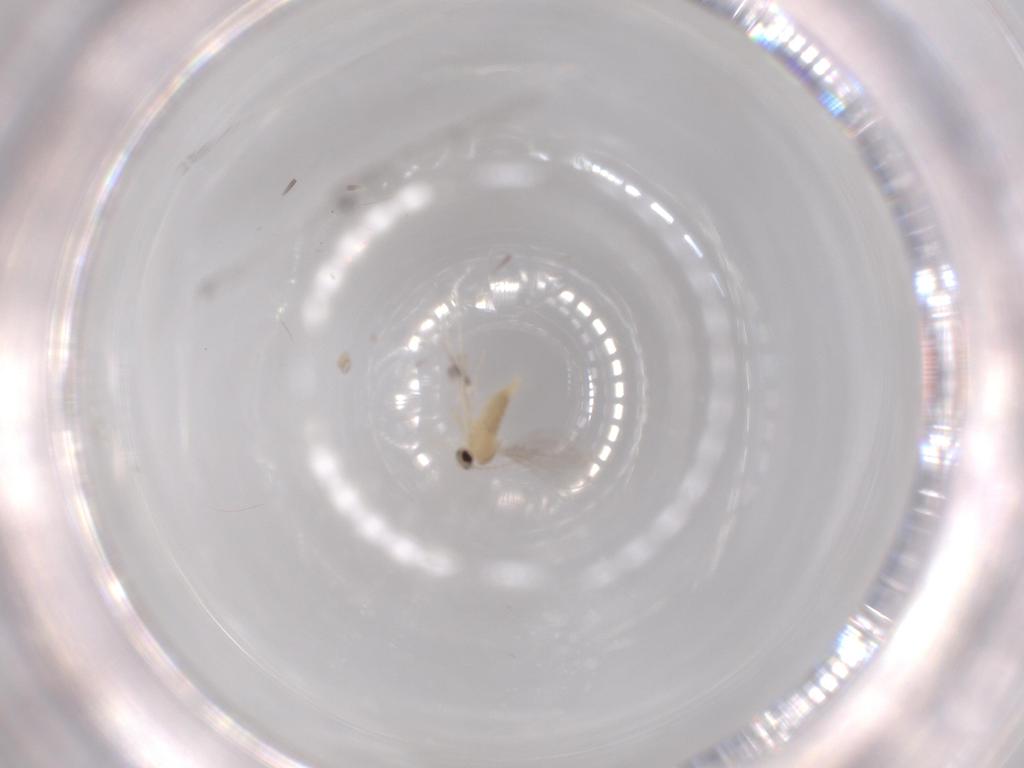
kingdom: Animalia
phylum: Arthropoda
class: Insecta
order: Diptera
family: Cecidomyiidae
